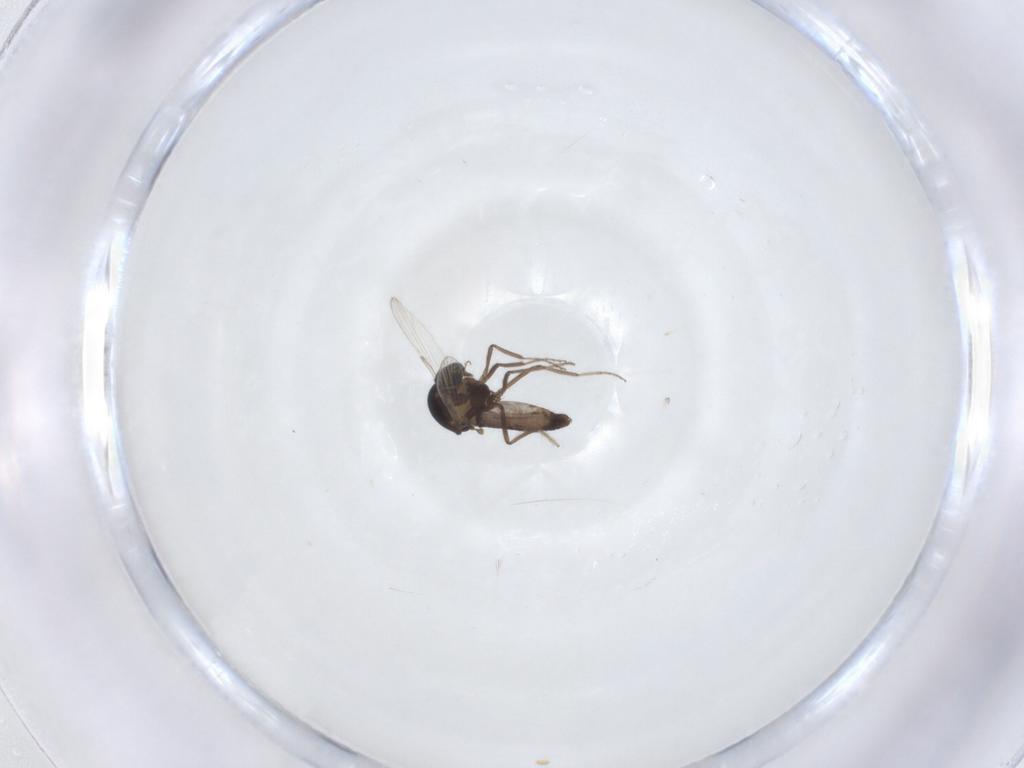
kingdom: Animalia
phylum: Arthropoda
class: Insecta
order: Diptera
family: Ceratopogonidae
